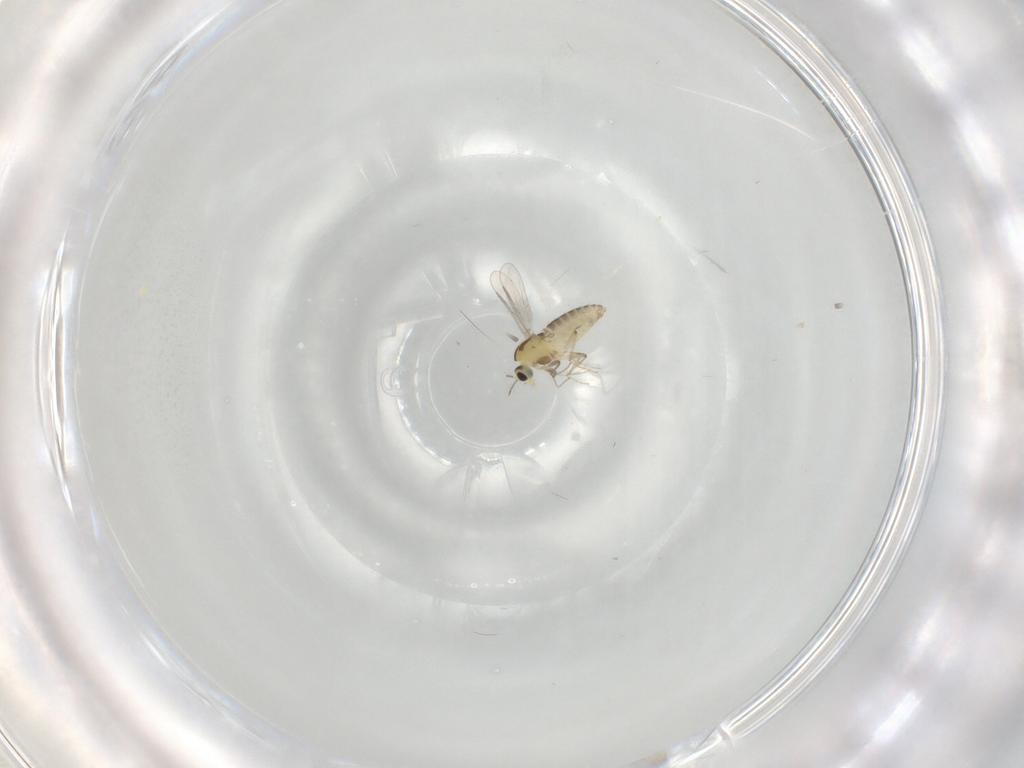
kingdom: Animalia
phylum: Arthropoda
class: Insecta
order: Diptera
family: Chironomidae
